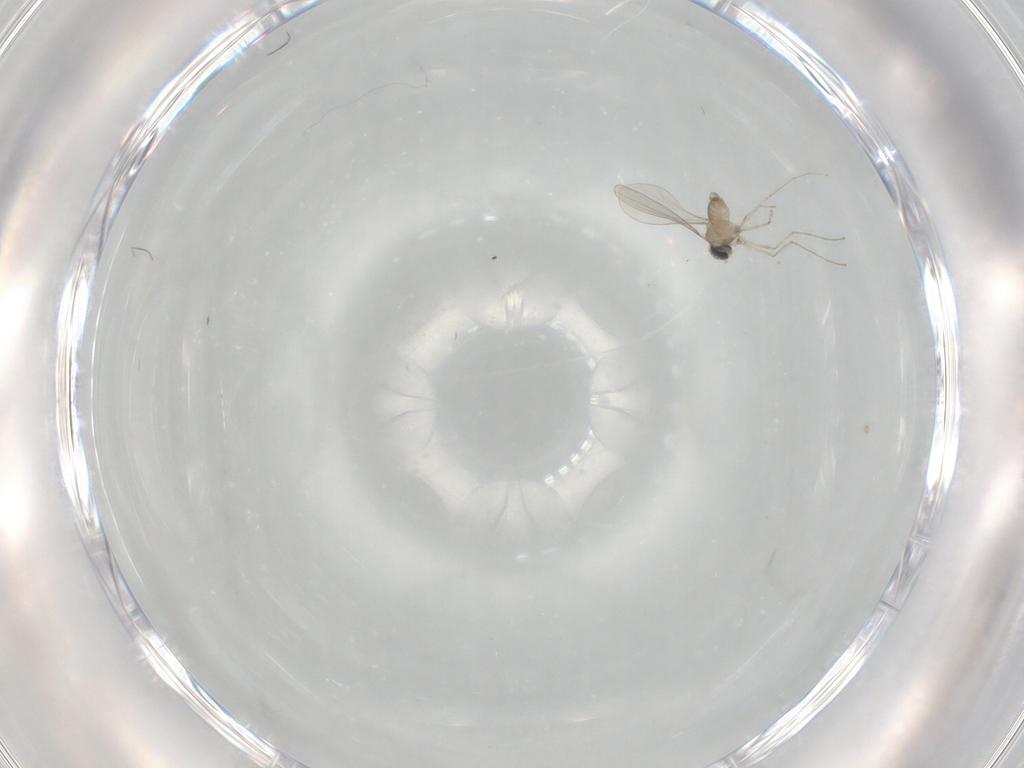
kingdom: Animalia
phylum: Arthropoda
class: Insecta
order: Diptera
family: Cecidomyiidae
